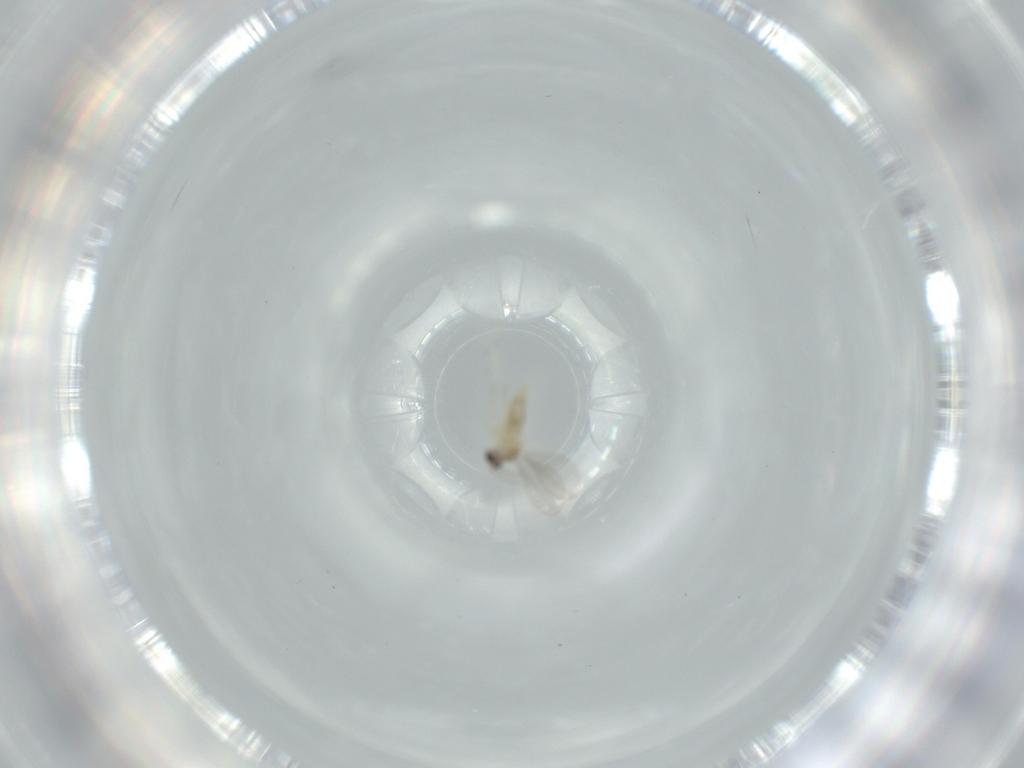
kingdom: Animalia
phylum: Arthropoda
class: Insecta
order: Diptera
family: Cecidomyiidae
